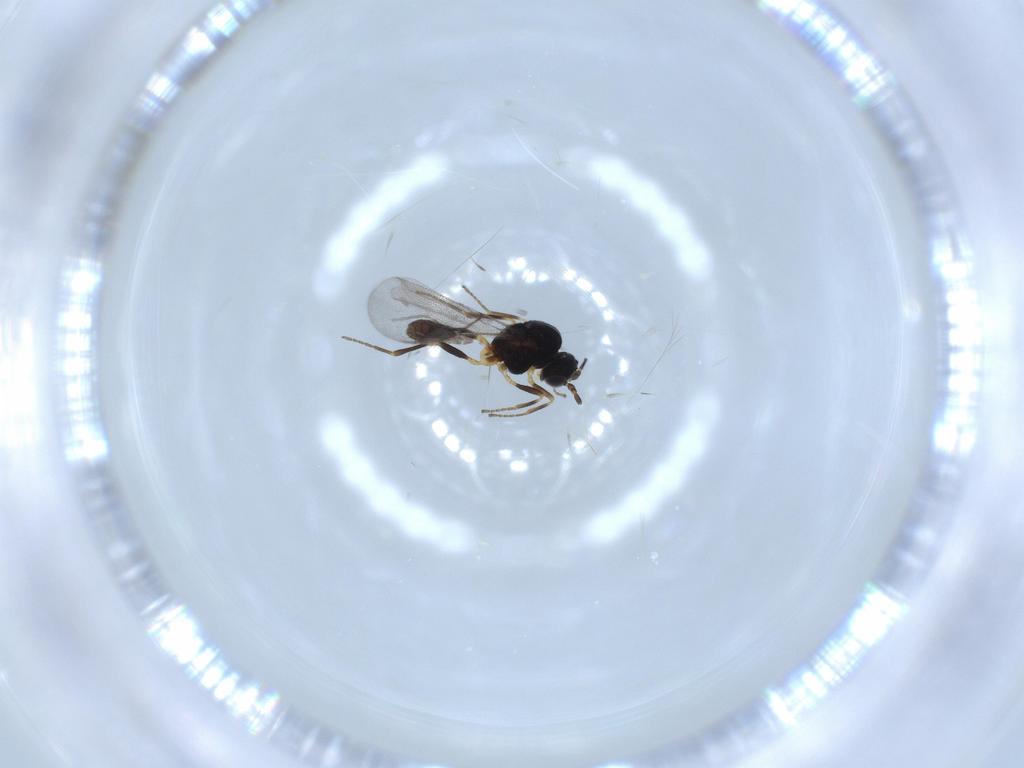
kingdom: Animalia
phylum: Arthropoda
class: Insecta
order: Hymenoptera
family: Braconidae
